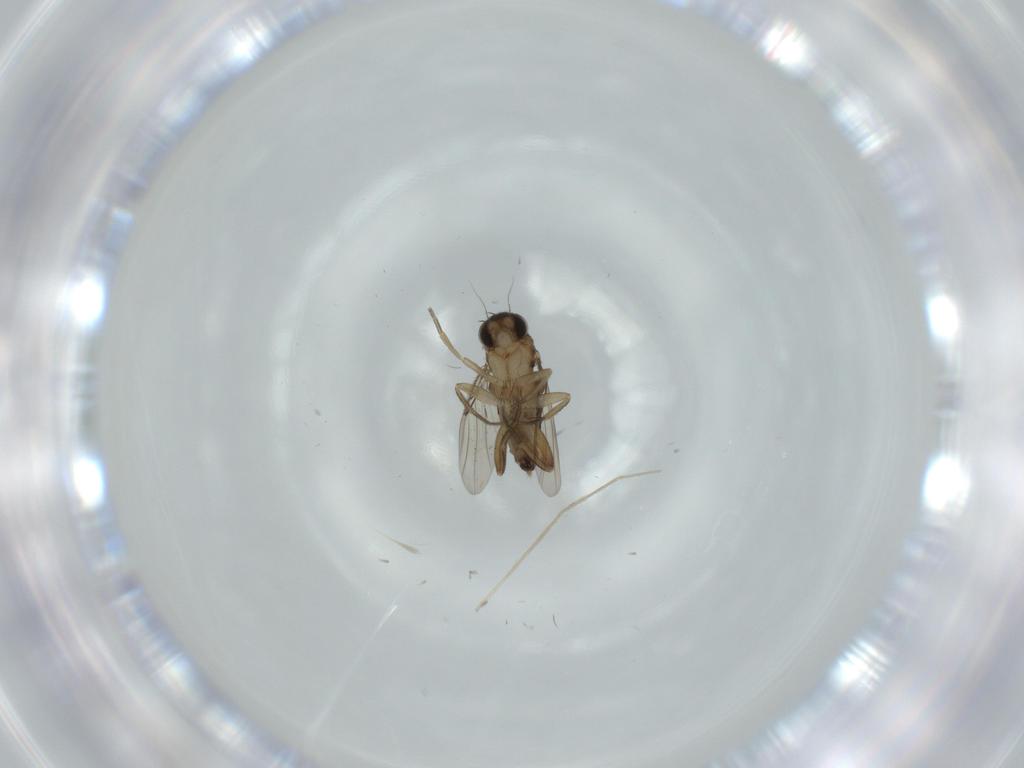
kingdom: Animalia
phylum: Arthropoda
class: Insecta
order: Diptera
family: Phoridae
